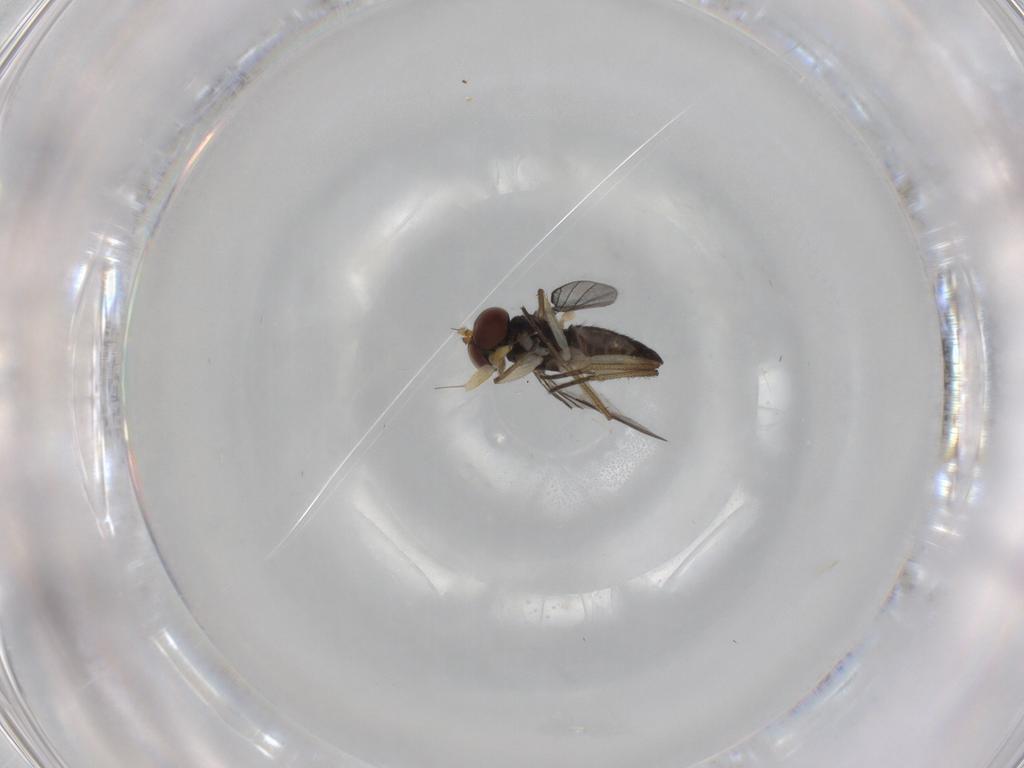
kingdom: Animalia
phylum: Arthropoda
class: Insecta
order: Diptera
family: Dolichopodidae
